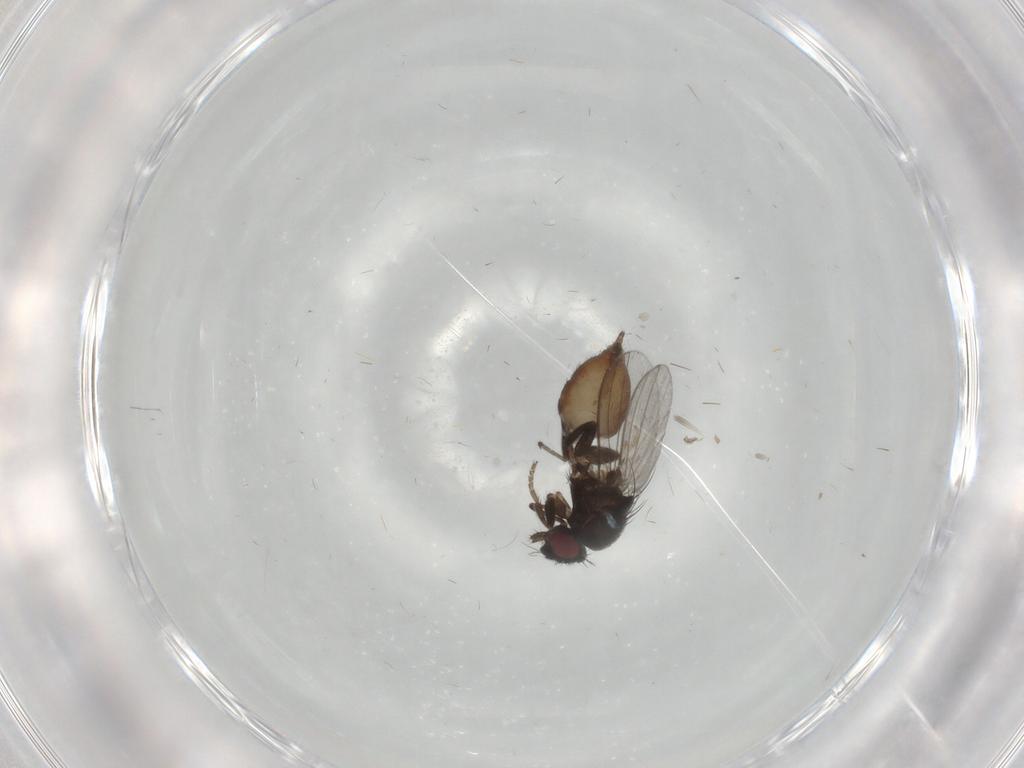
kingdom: Animalia
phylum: Arthropoda
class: Insecta
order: Diptera
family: Milichiidae
